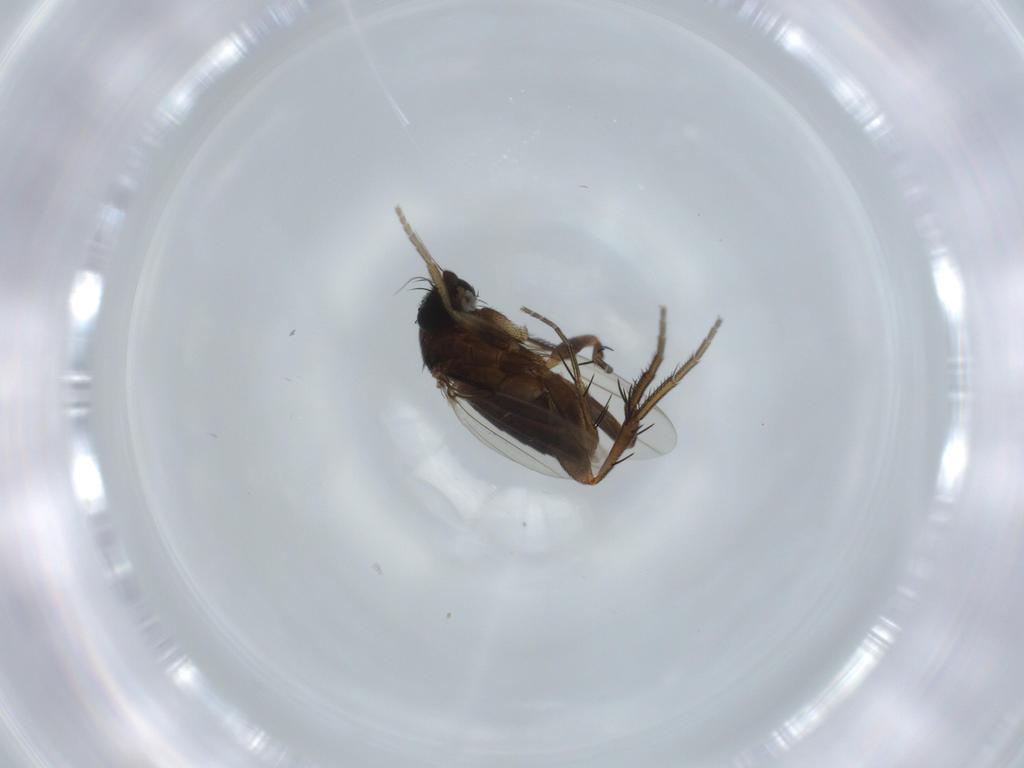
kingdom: Animalia
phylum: Arthropoda
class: Insecta
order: Diptera
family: Phoridae
